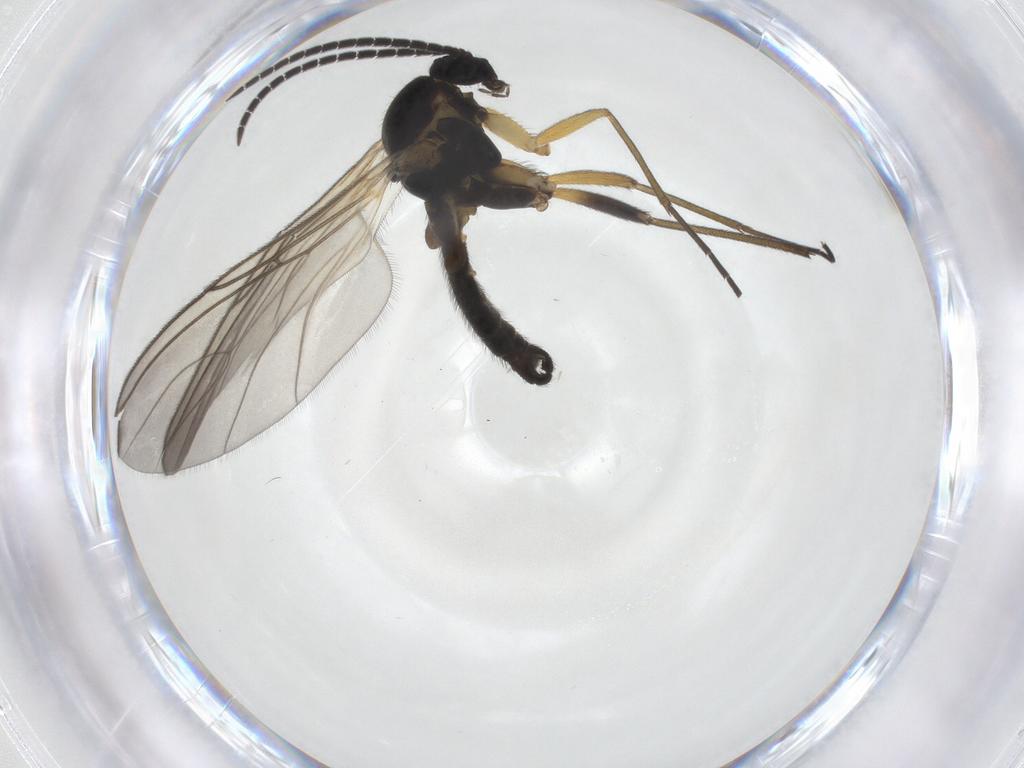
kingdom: Animalia
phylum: Arthropoda
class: Insecta
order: Diptera
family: Sciaridae
